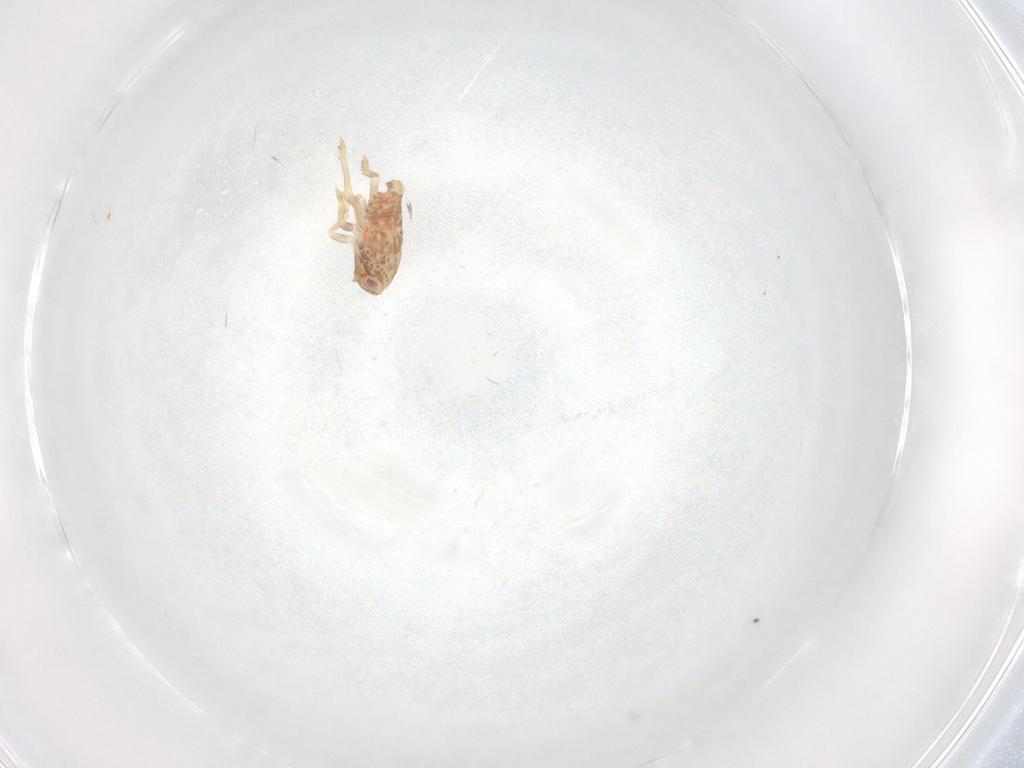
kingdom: Animalia
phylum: Arthropoda
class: Insecta
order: Hemiptera
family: Flatidae
